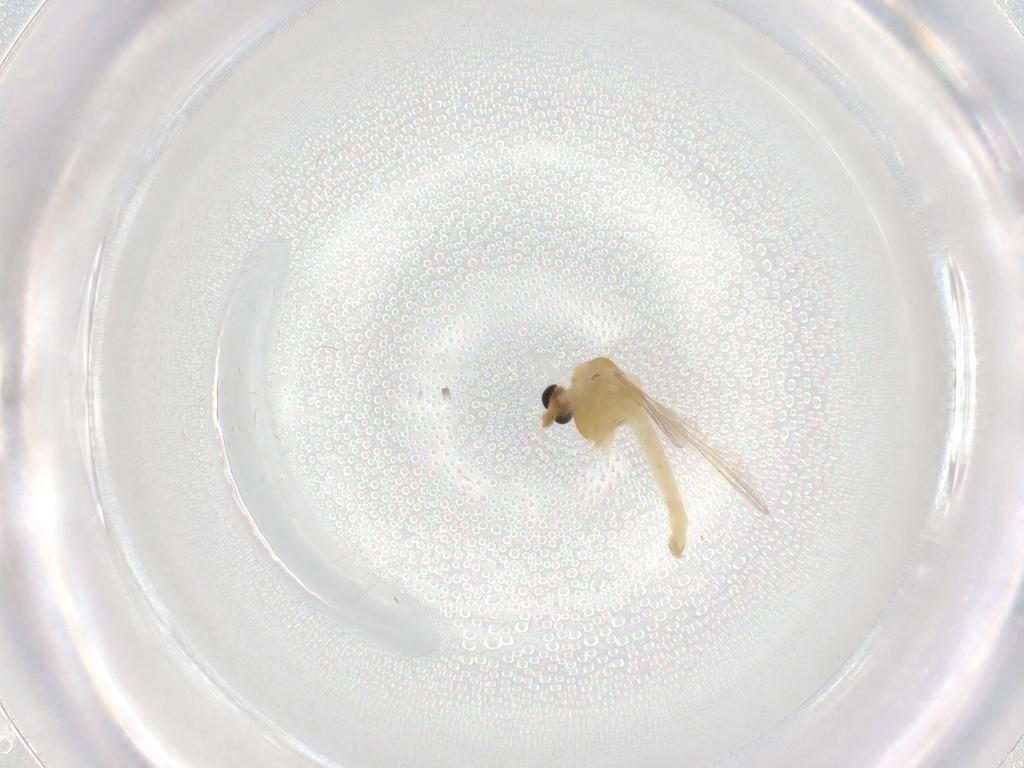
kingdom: Animalia
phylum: Arthropoda
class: Insecta
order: Diptera
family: Chironomidae
